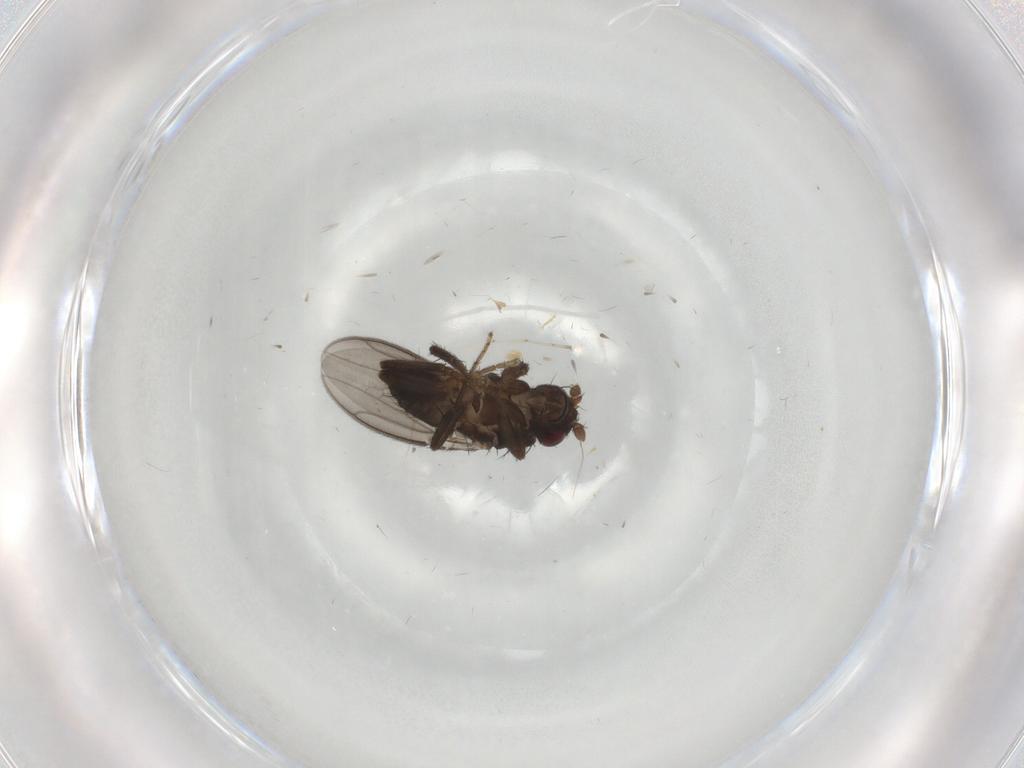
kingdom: Animalia
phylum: Arthropoda
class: Insecta
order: Diptera
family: Sphaeroceridae
